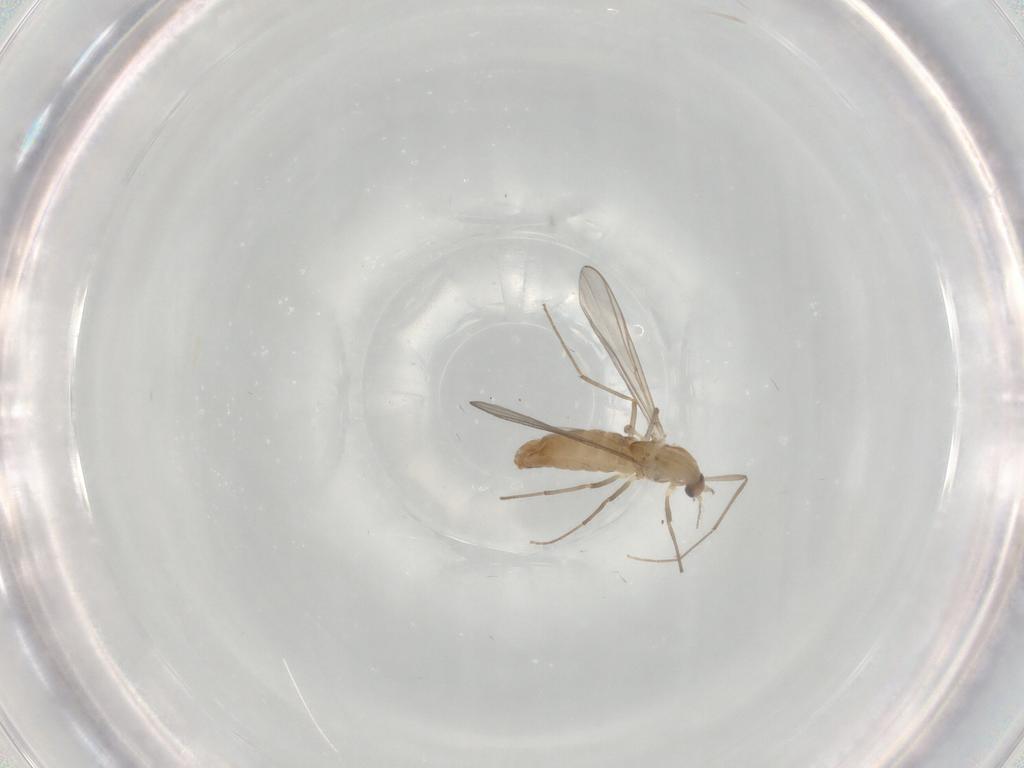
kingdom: Animalia
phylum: Arthropoda
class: Insecta
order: Diptera
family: Chironomidae
